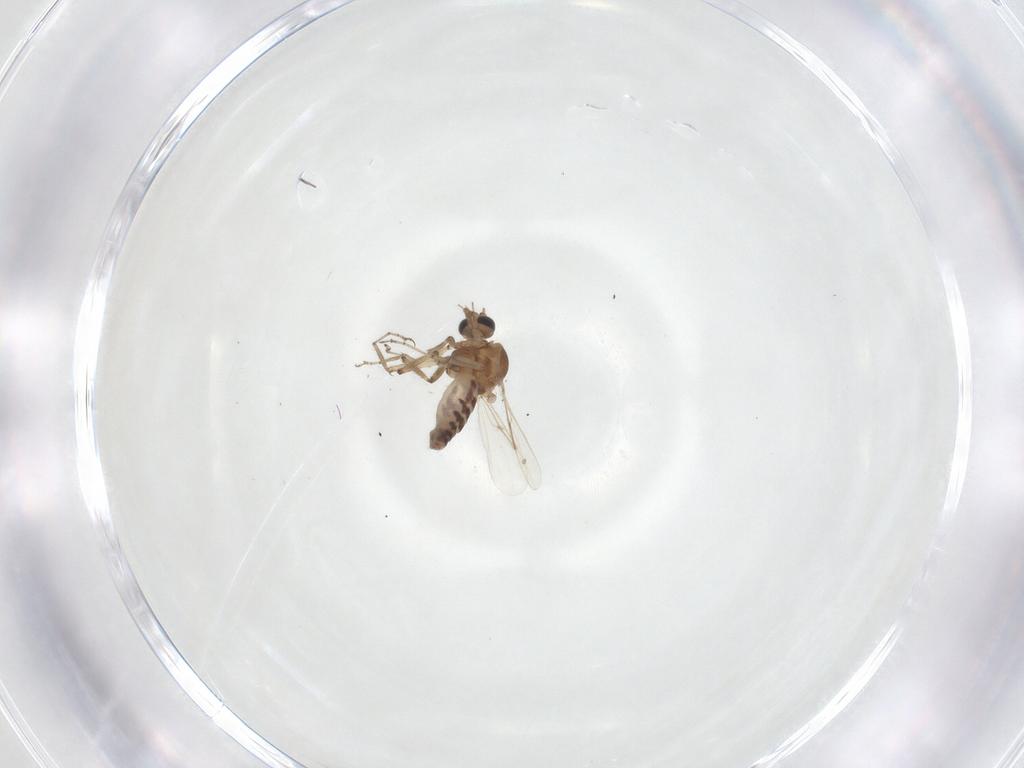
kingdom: Animalia
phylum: Arthropoda
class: Insecta
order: Diptera
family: Ceratopogonidae
